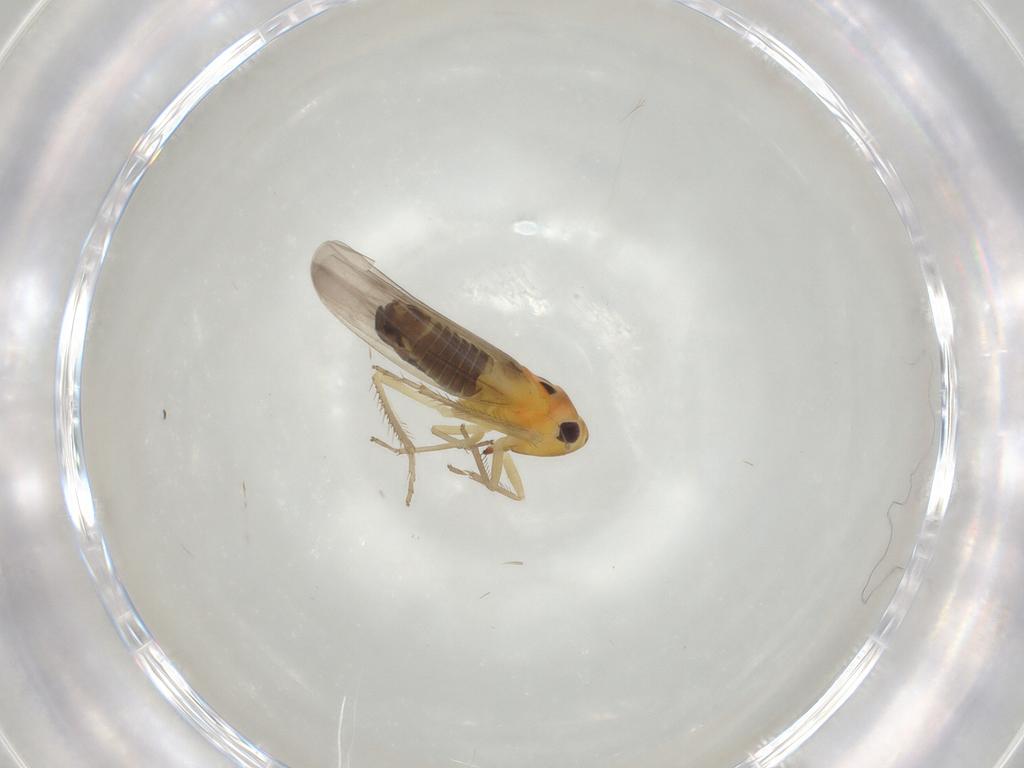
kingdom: Animalia
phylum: Arthropoda
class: Insecta
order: Hemiptera
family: Cicadellidae
